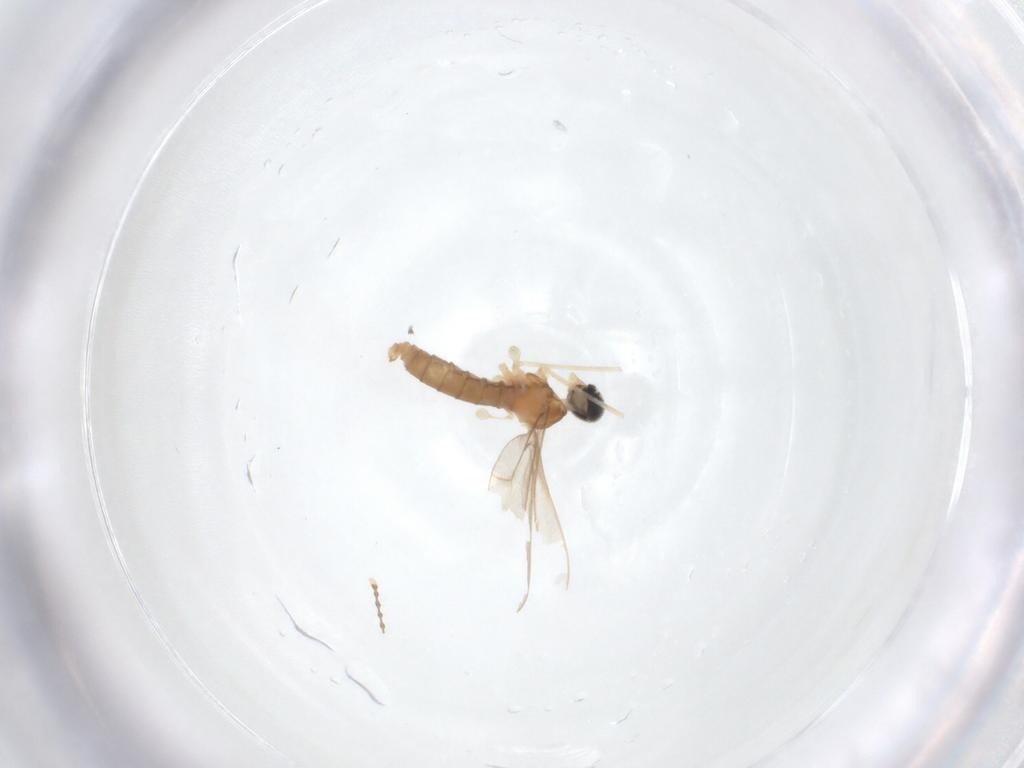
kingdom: Animalia
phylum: Arthropoda
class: Insecta
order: Diptera
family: Cecidomyiidae
